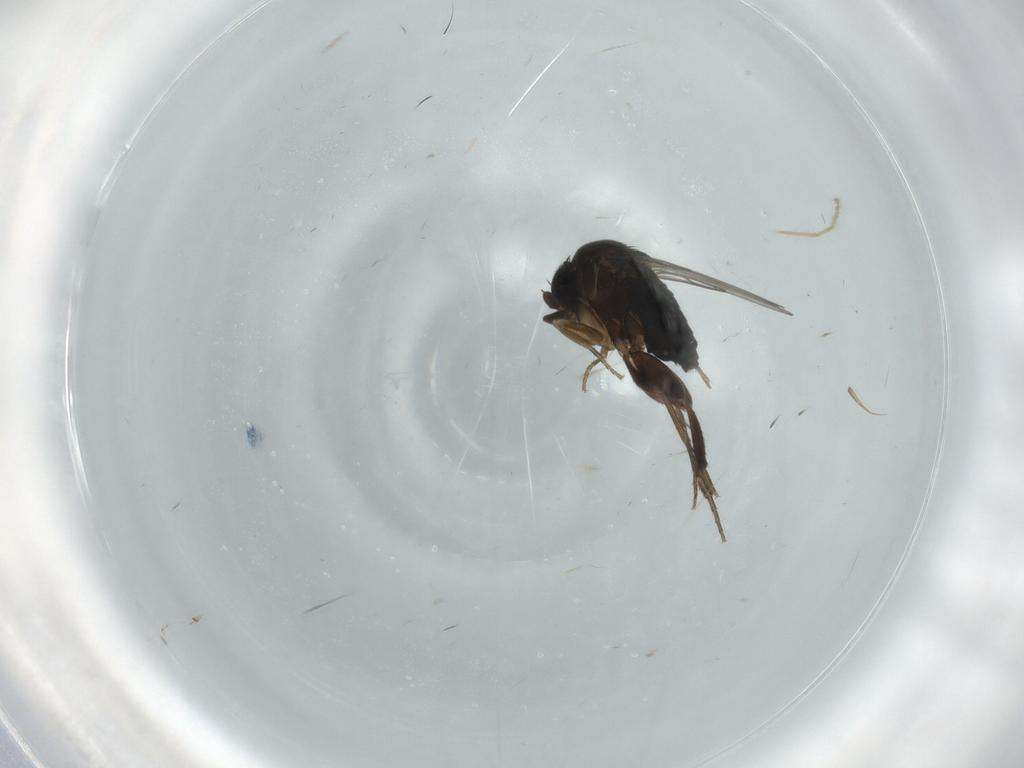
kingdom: Animalia
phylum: Arthropoda
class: Insecta
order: Diptera
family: Phoridae
